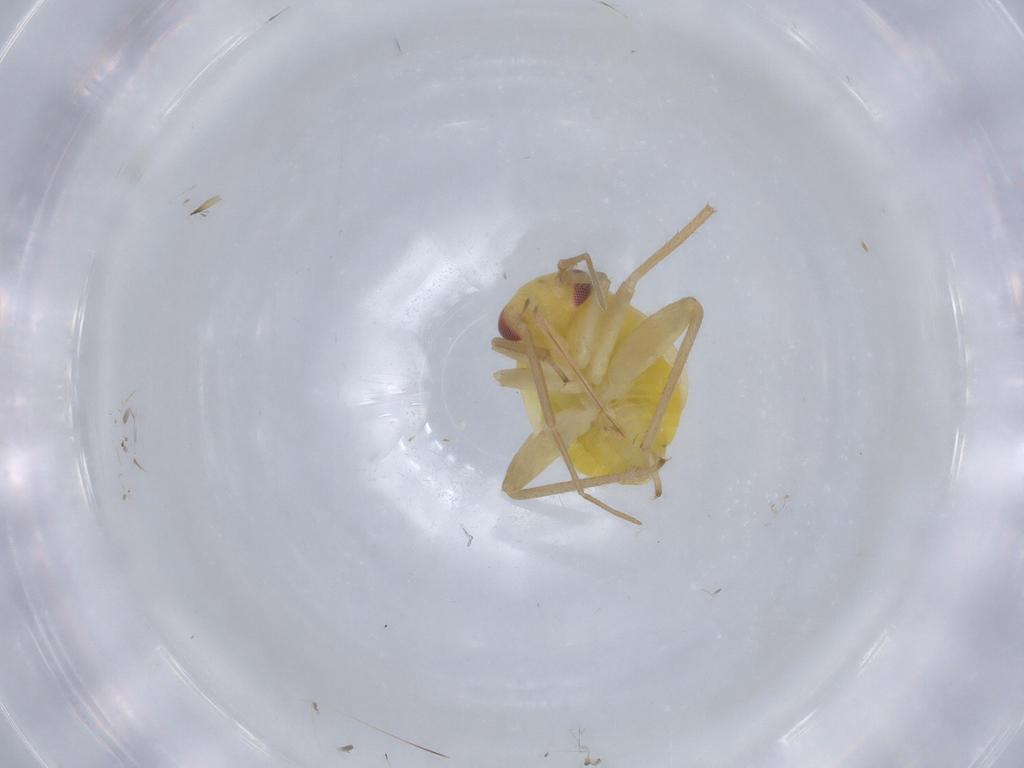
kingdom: Animalia
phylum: Arthropoda
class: Insecta
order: Hemiptera
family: Miridae
